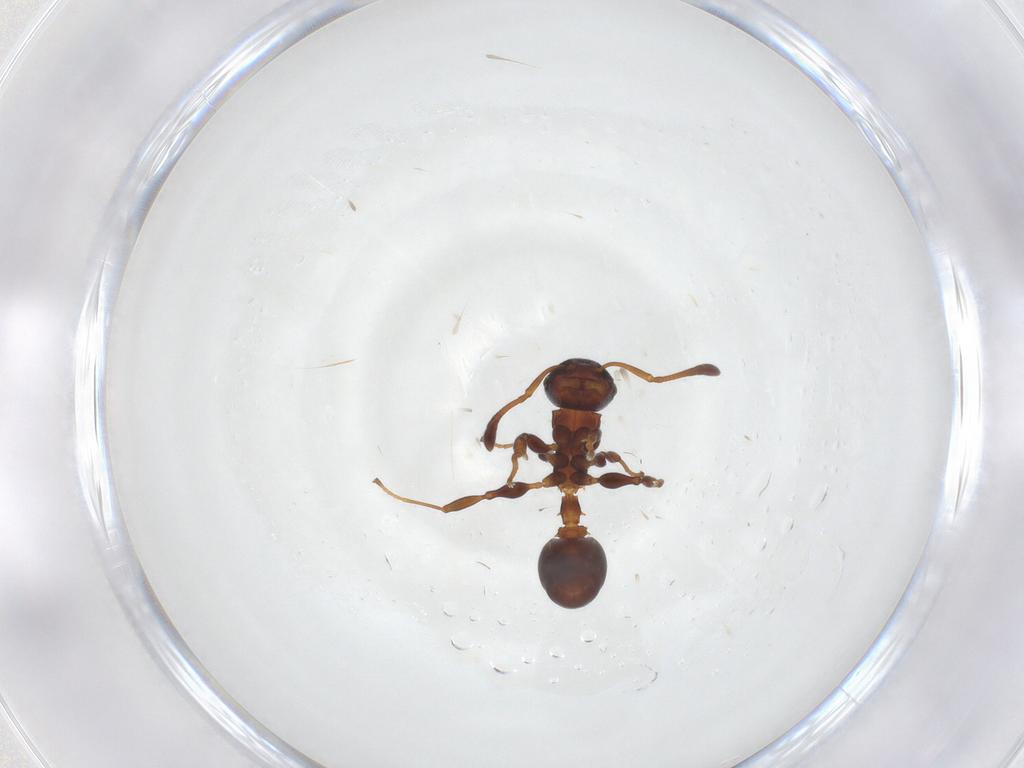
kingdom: Animalia
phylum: Arthropoda
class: Insecta
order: Hymenoptera
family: Formicidae
